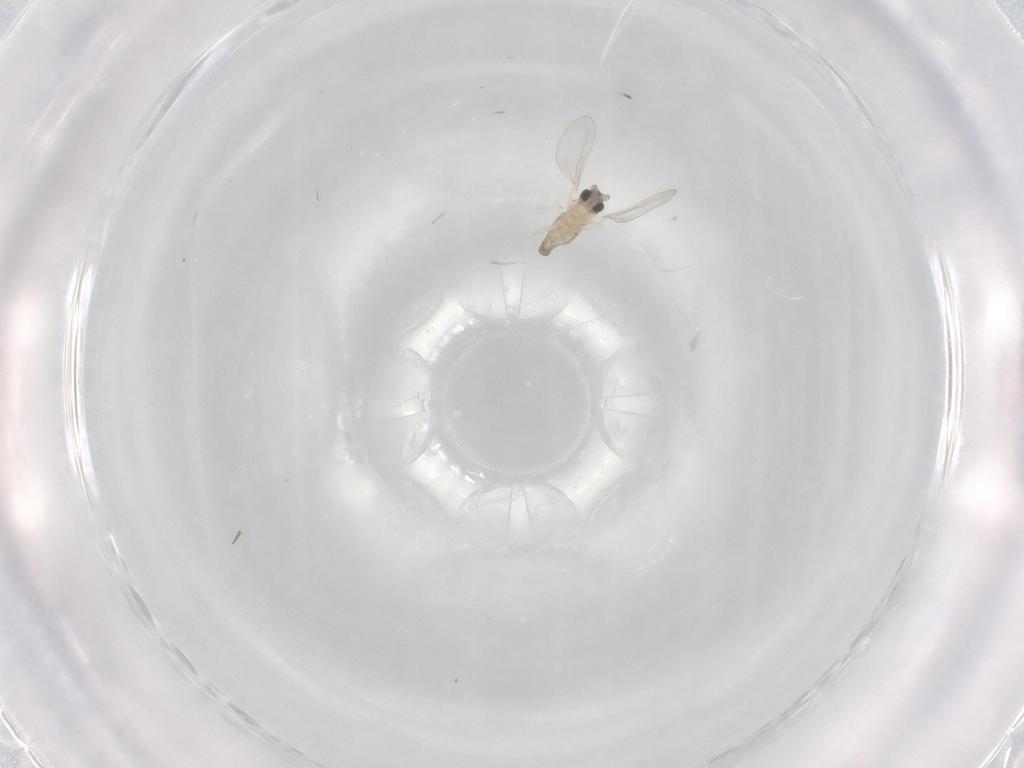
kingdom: Animalia
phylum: Arthropoda
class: Insecta
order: Diptera
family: Cecidomyiidae
